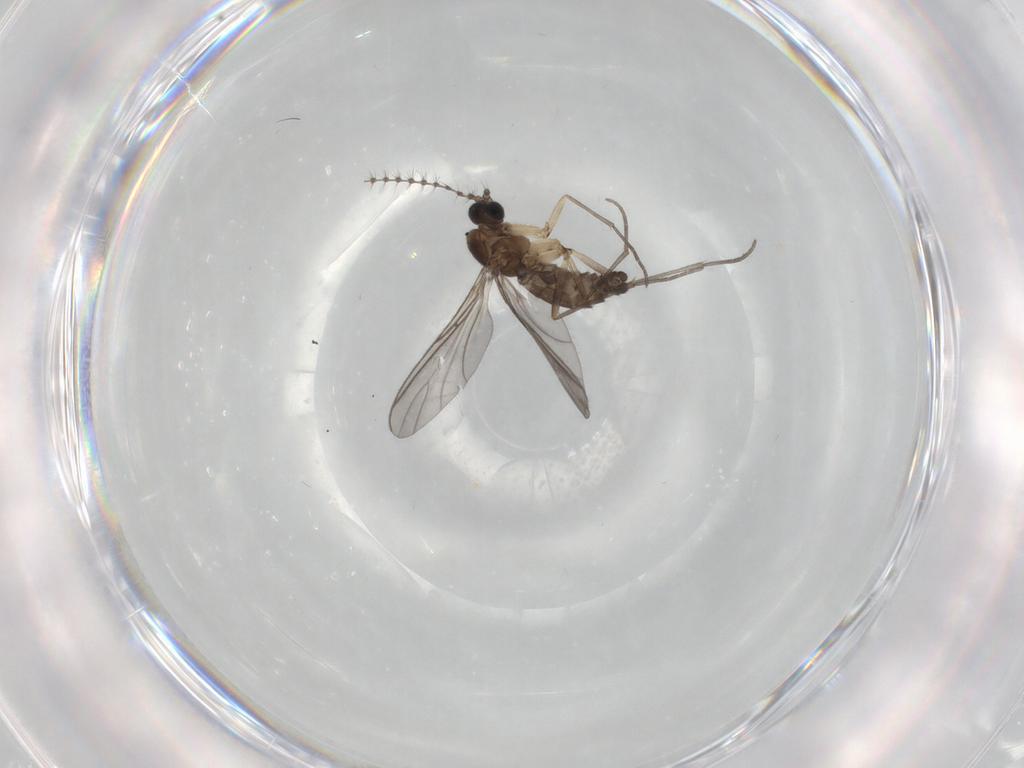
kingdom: Animalia
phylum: Arthropoda
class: Insecta
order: Diptera
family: Sciaridae
